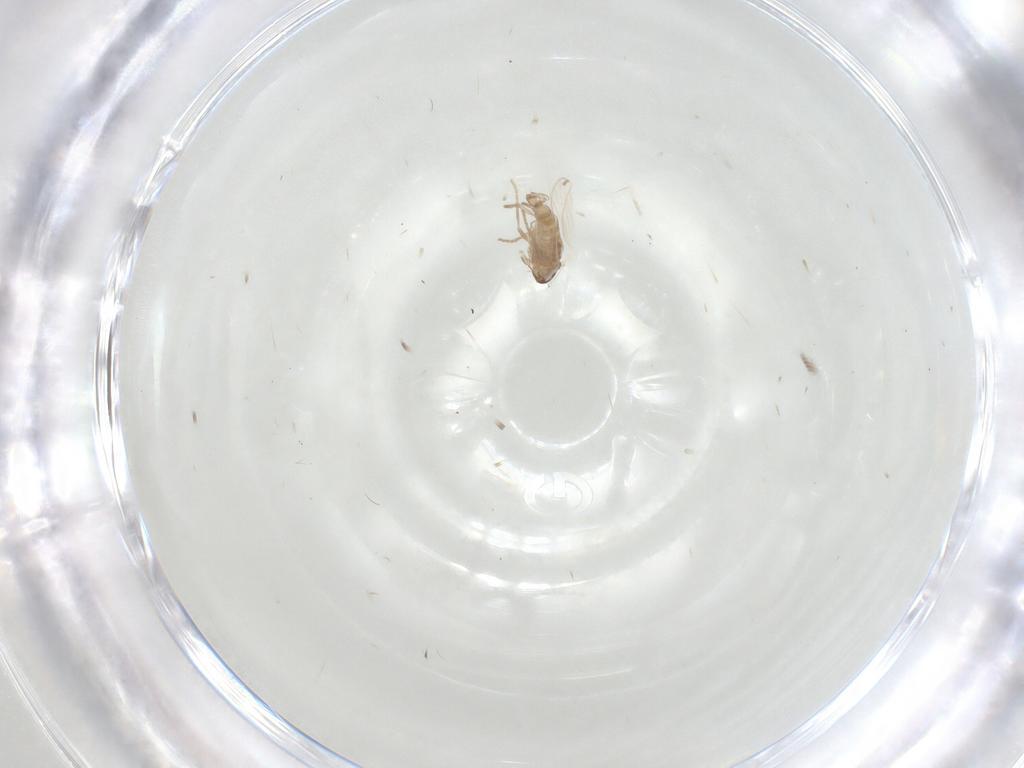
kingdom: Animalia
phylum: Arthropoda
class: Insecta
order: Diptera
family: Psychodidae
